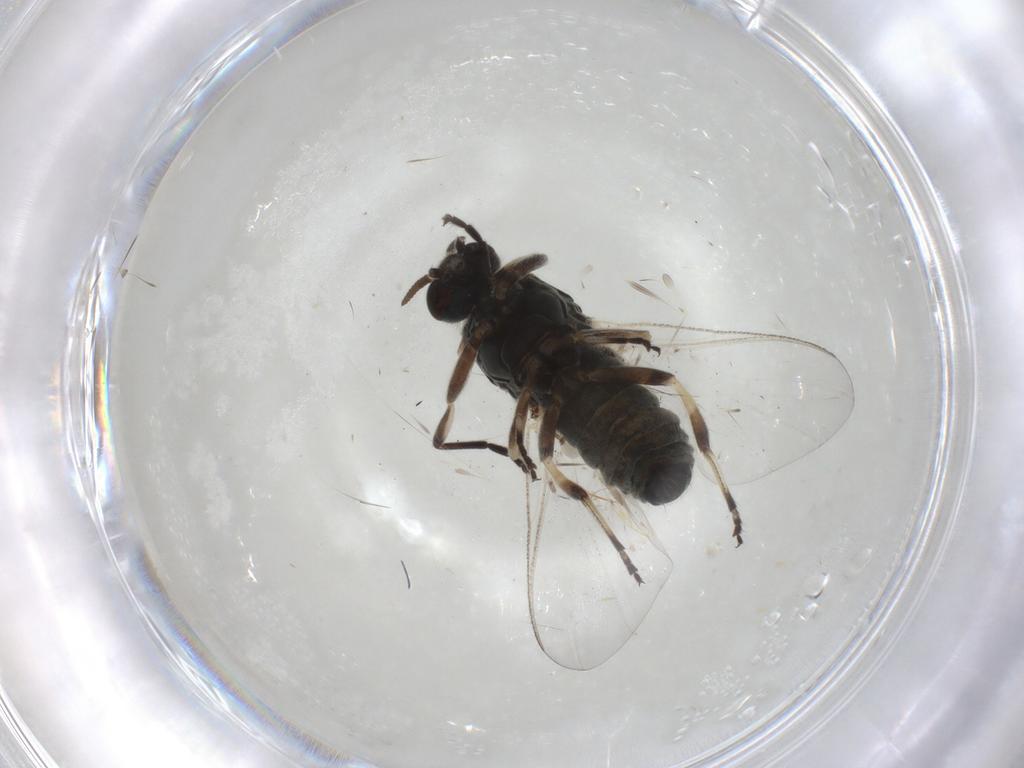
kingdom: Animalia
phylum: Arthropoda
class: Insecta
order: Diptera
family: Simuliidae
